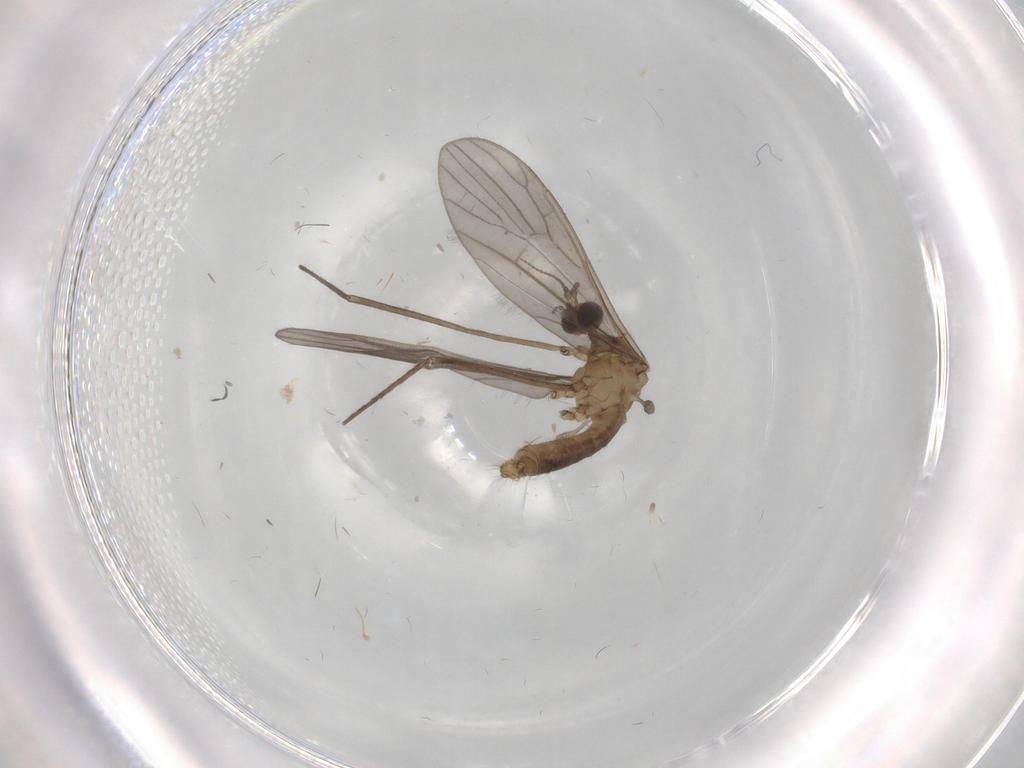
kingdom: Animalia
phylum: Arthropoda
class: Insecta
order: Diptera
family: Limoniidae
